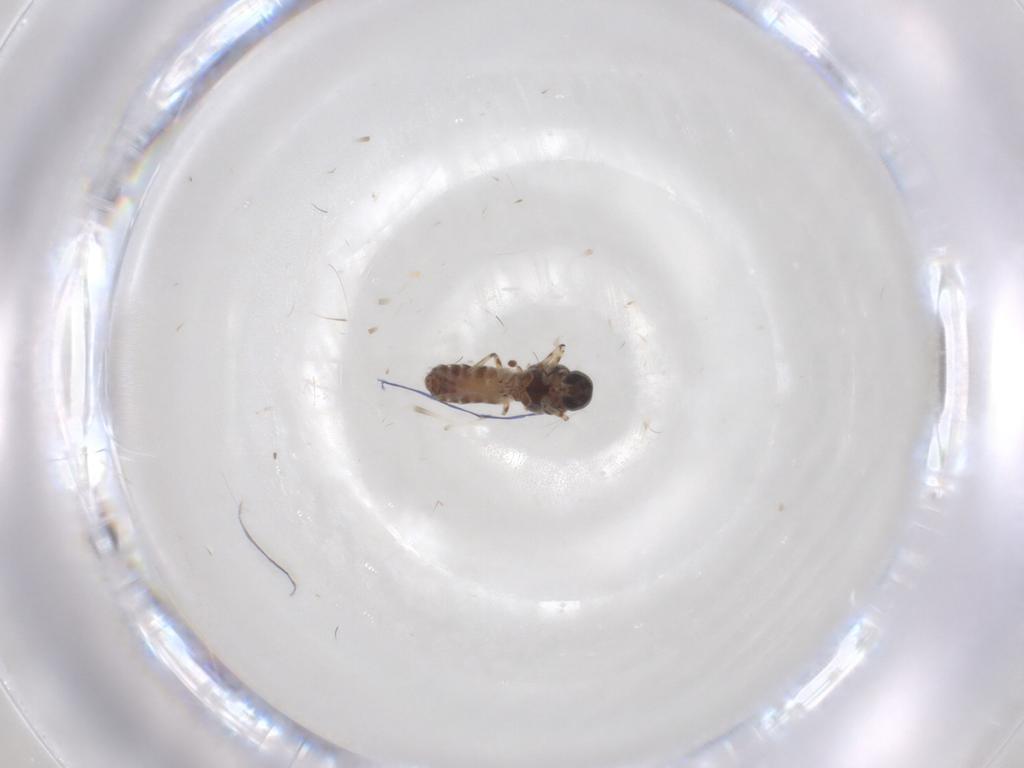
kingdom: Animalia
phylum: Arthropoda
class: Insecta
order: Diptera
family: Ceratopogonidae
